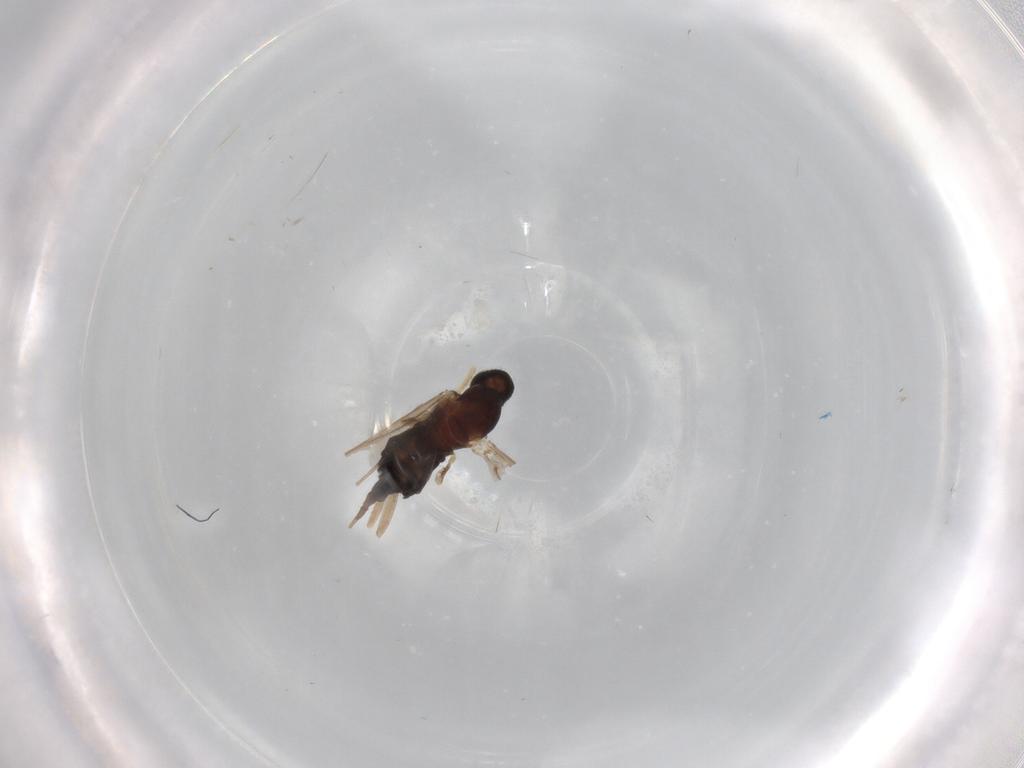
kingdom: Animalia
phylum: Arthropoda
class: Insecta
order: Diptera
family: Cecidomyiidae
